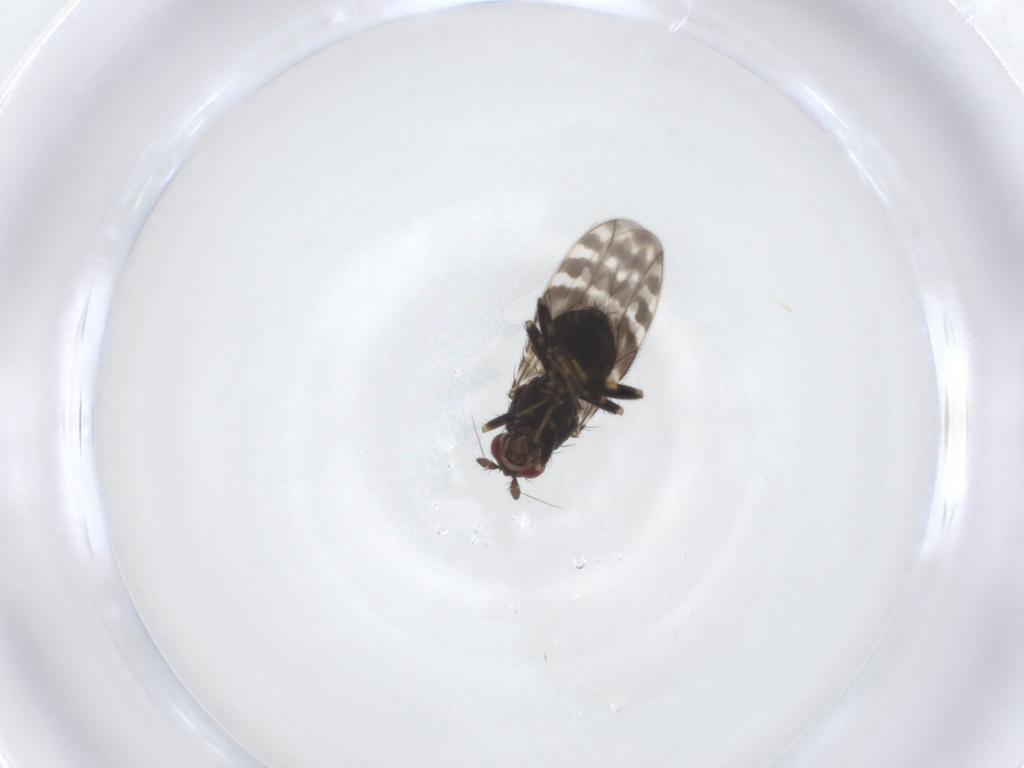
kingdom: Animalia
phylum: Arthropoda
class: Insecta
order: Diptera
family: Sphaeroceridae
